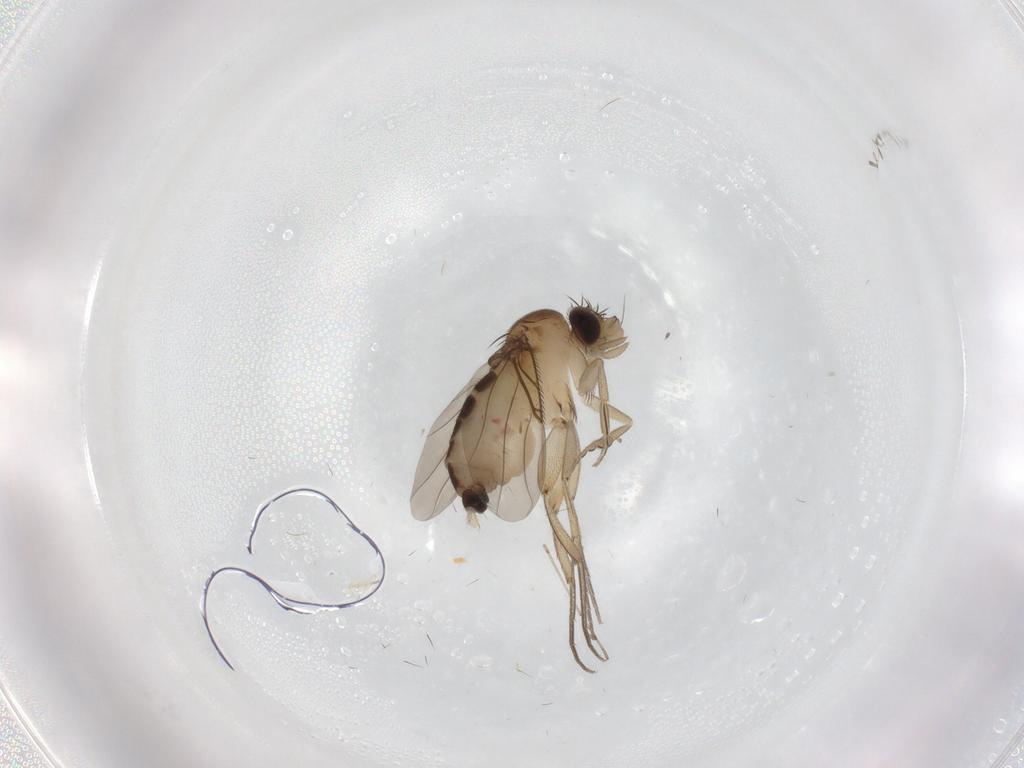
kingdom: Animalia
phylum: Arthropoda
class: Insecta
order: Diptera
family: Phoridae
